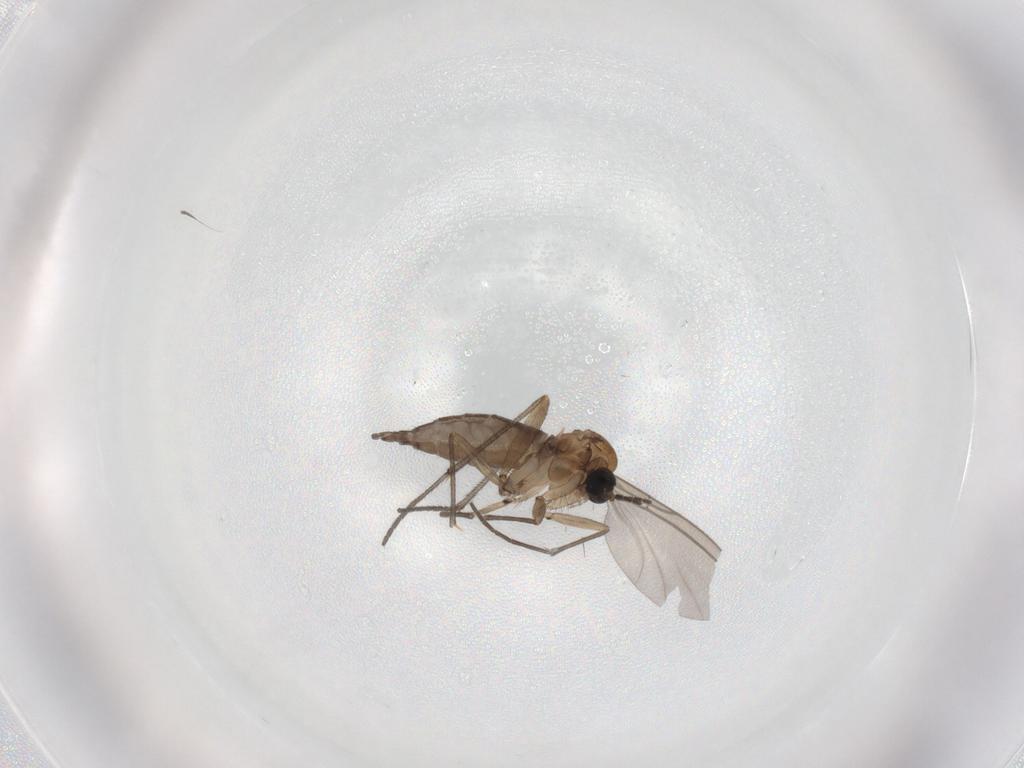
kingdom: Animalia
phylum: Arthropoda
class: Insecta
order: Diptera
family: Sciaridae
